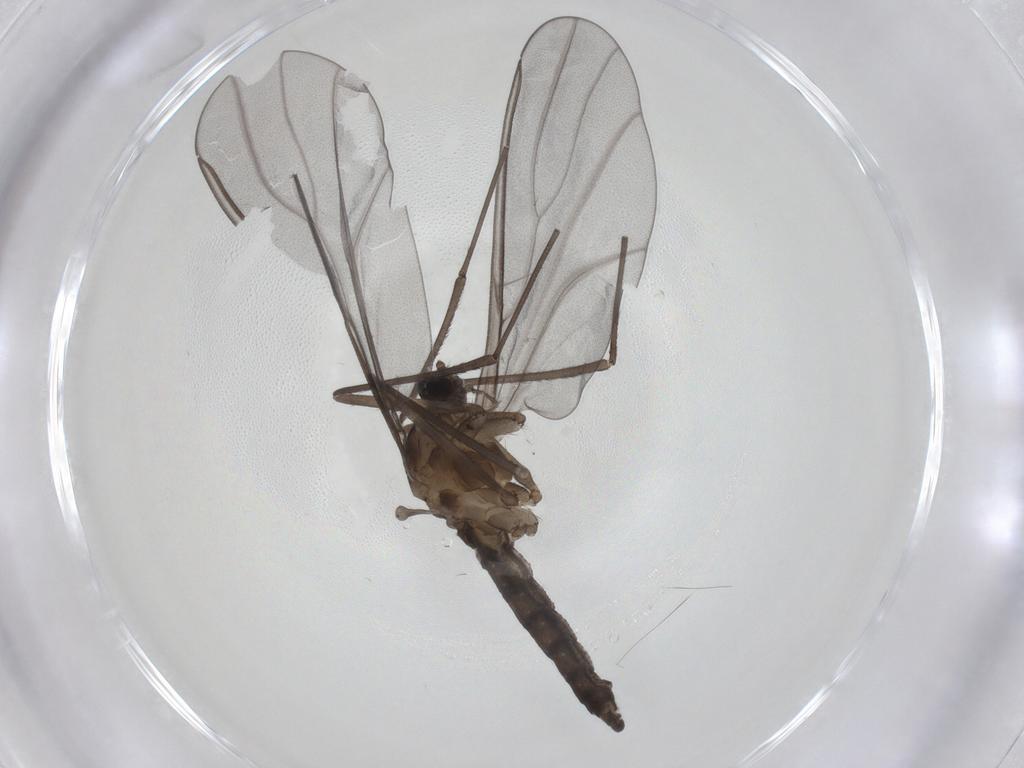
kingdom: Animalia
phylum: Arthropoda
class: Insecta
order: Diptera
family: Cecidomyiidae
